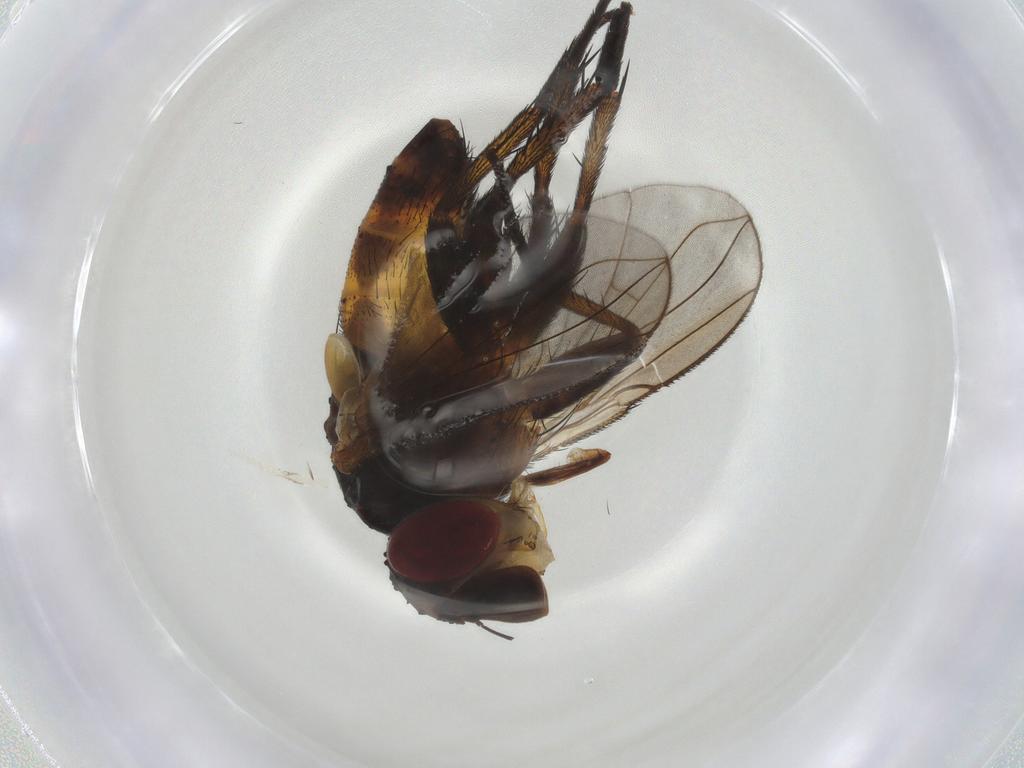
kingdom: Animalia
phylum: Arthropoda
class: Insecta
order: Diptera
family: Tachinidae
